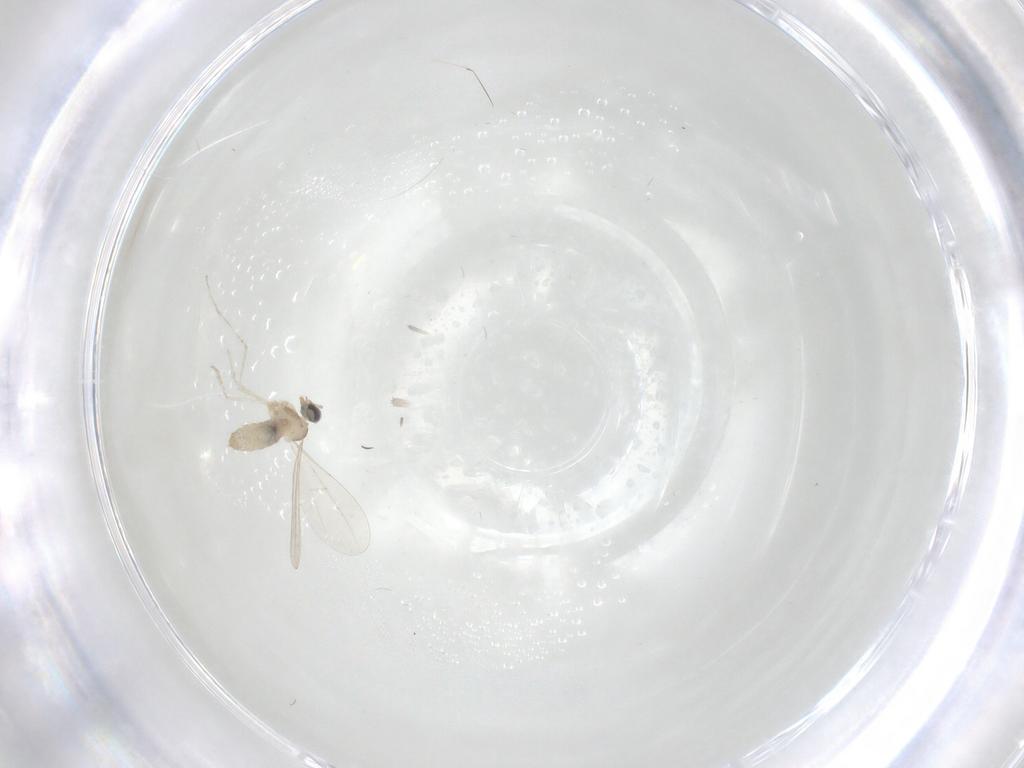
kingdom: Animalia
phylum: Arthropoda
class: Insecta
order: Diptera
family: Cecidomyiidae
